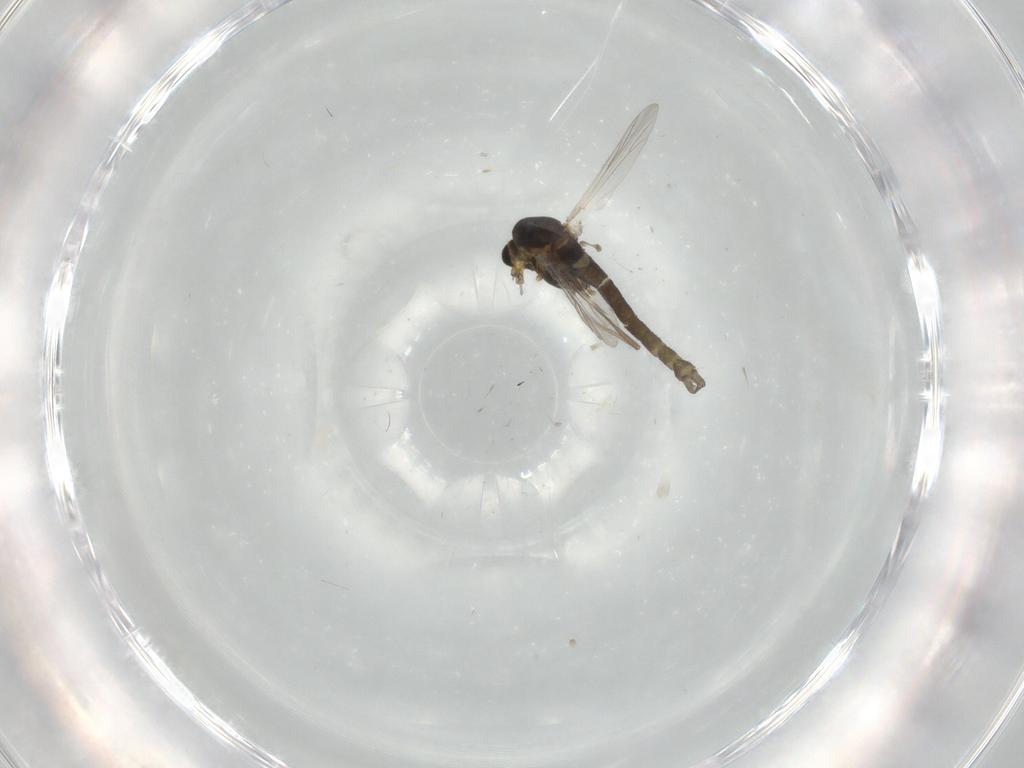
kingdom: Animalia
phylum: Arthropoda
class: Insecta
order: Diptera
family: Chironomidae
